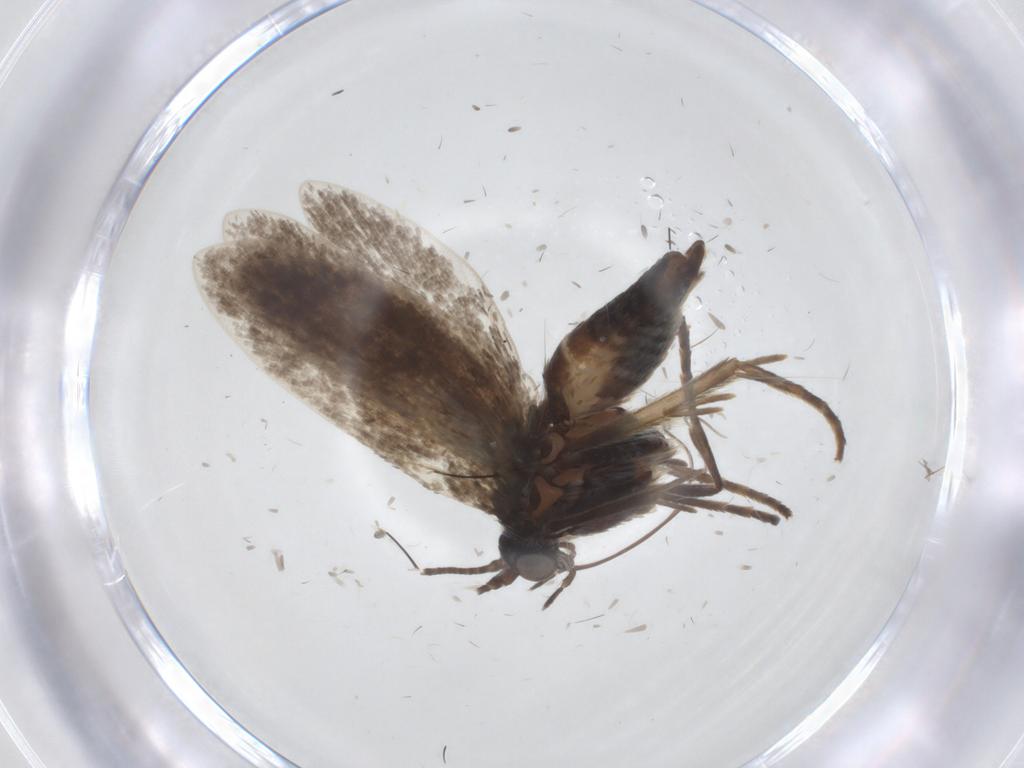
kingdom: Animalia
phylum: Arthropoda
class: Insecta
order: Lepidoptera
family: Adelidae
